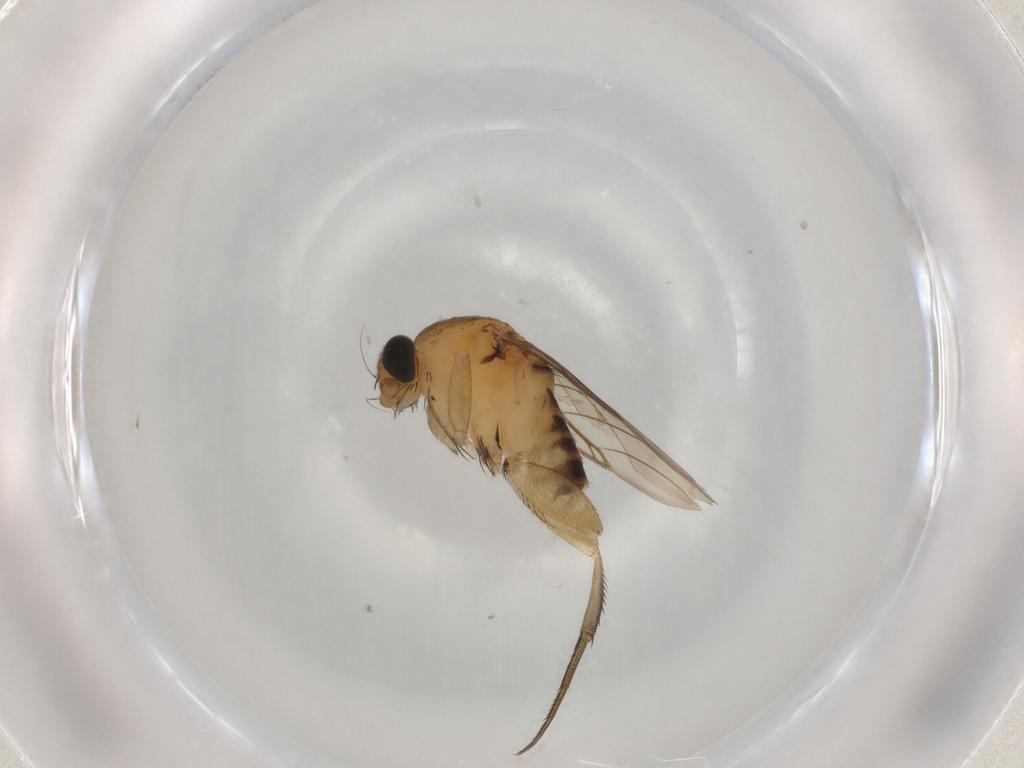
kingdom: Animalia
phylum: Arthropoda
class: Insecta
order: Diptera
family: Phoridae
